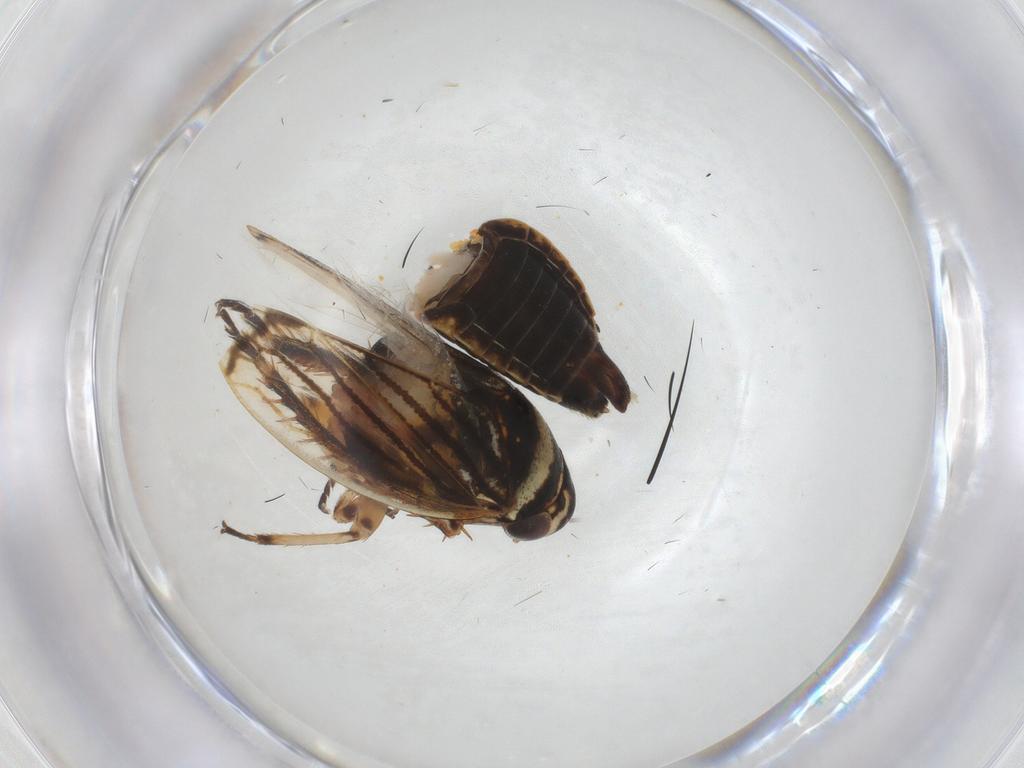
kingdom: Animalia
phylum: Arthropoda
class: Insecta
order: Hemiptera
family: Cicadellidae
